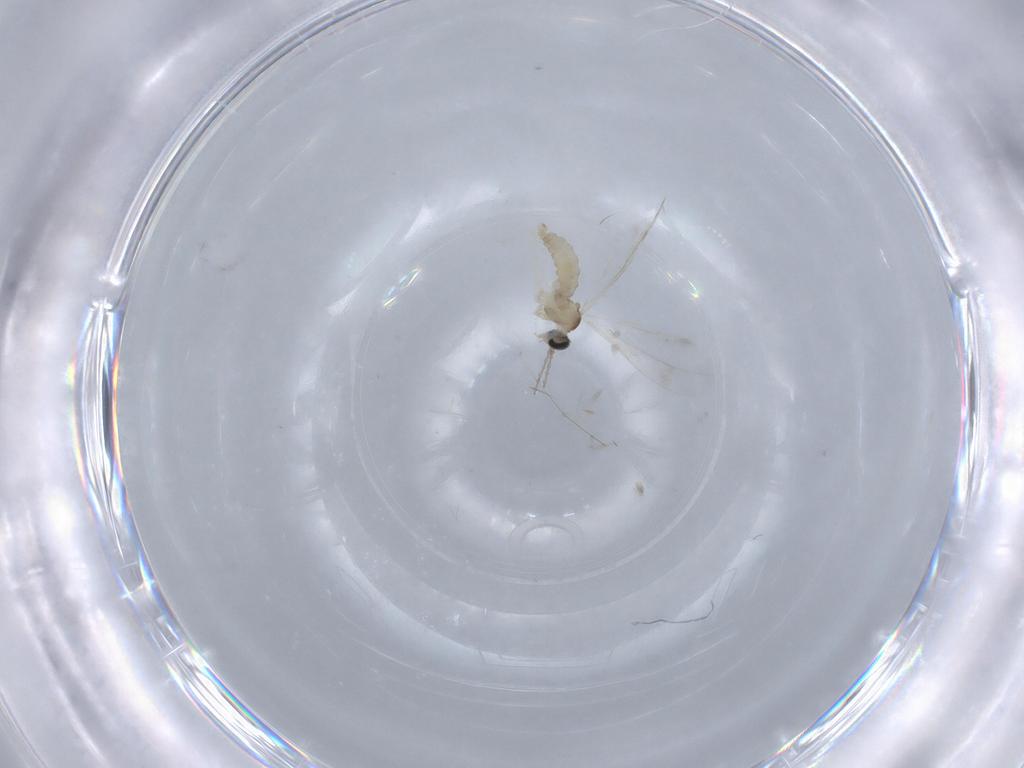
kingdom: Animalia
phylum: Arthropoda
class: Insecta
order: Diptera
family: Cecidomyiidae
